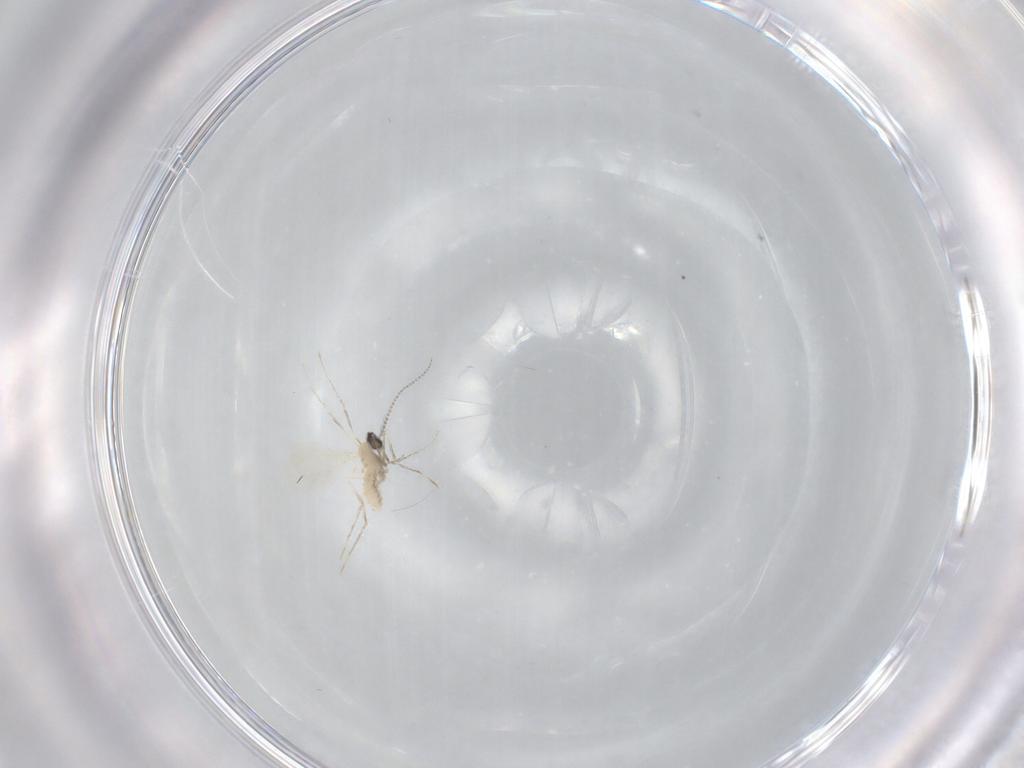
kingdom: Animalia
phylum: Arthropoda
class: Insecta
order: Diptera
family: Cecidomyiidae
